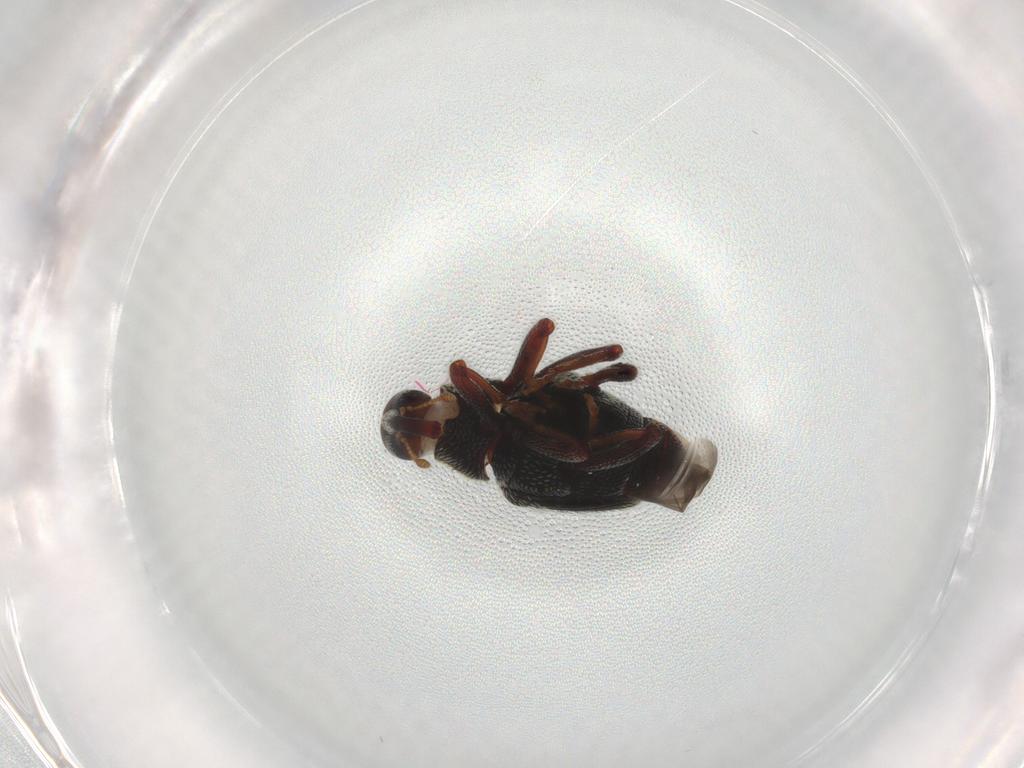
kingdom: Animalia
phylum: Arthropoda
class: Insecta
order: Coleoptera
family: Curculionidae
